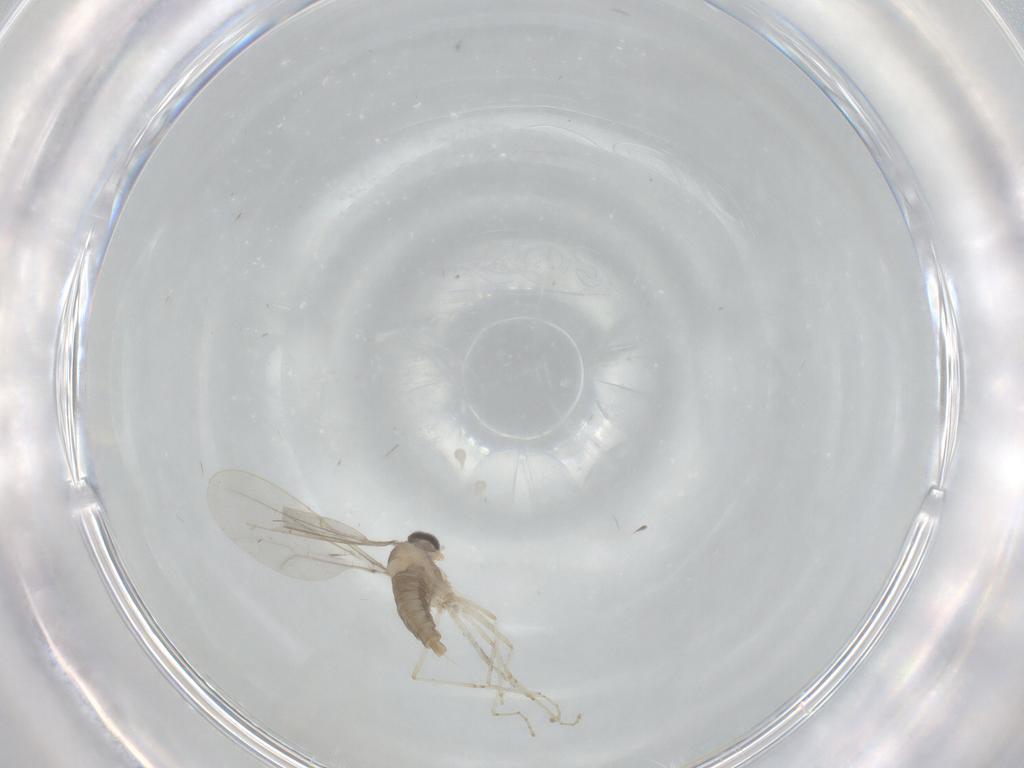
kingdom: Animalia
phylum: Arthropoda
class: Insecta
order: Diptera
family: Cecidomyiidae
